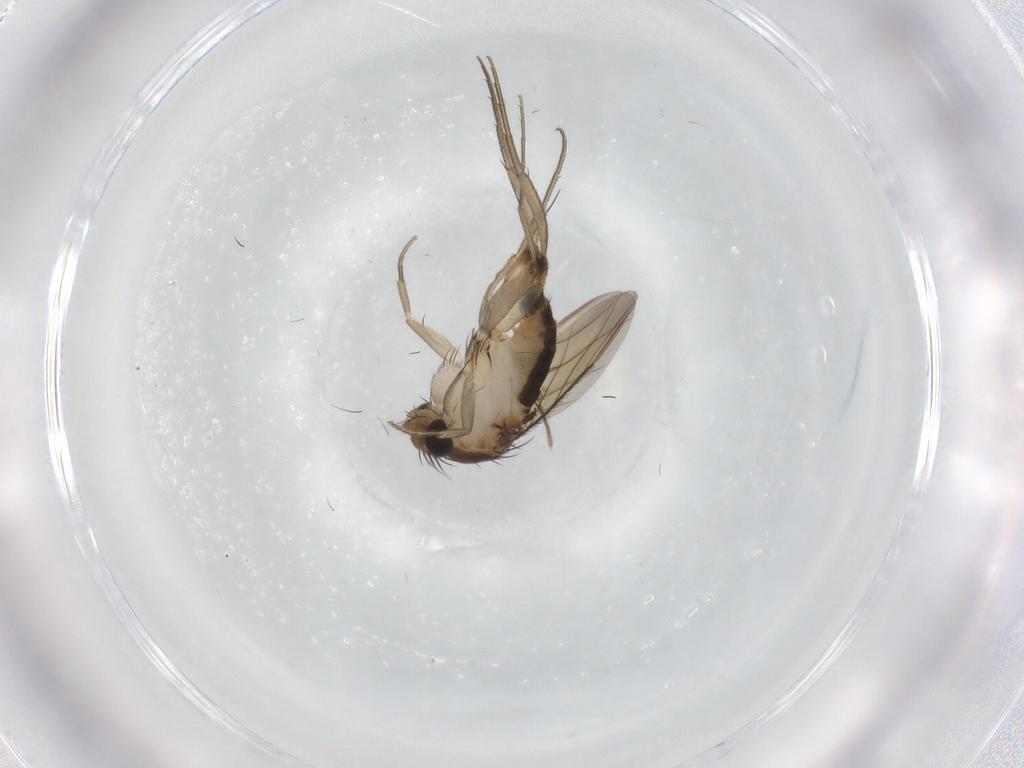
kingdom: Animalia
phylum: Arthropoda
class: Insecta
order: Diptera
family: Phoridae
